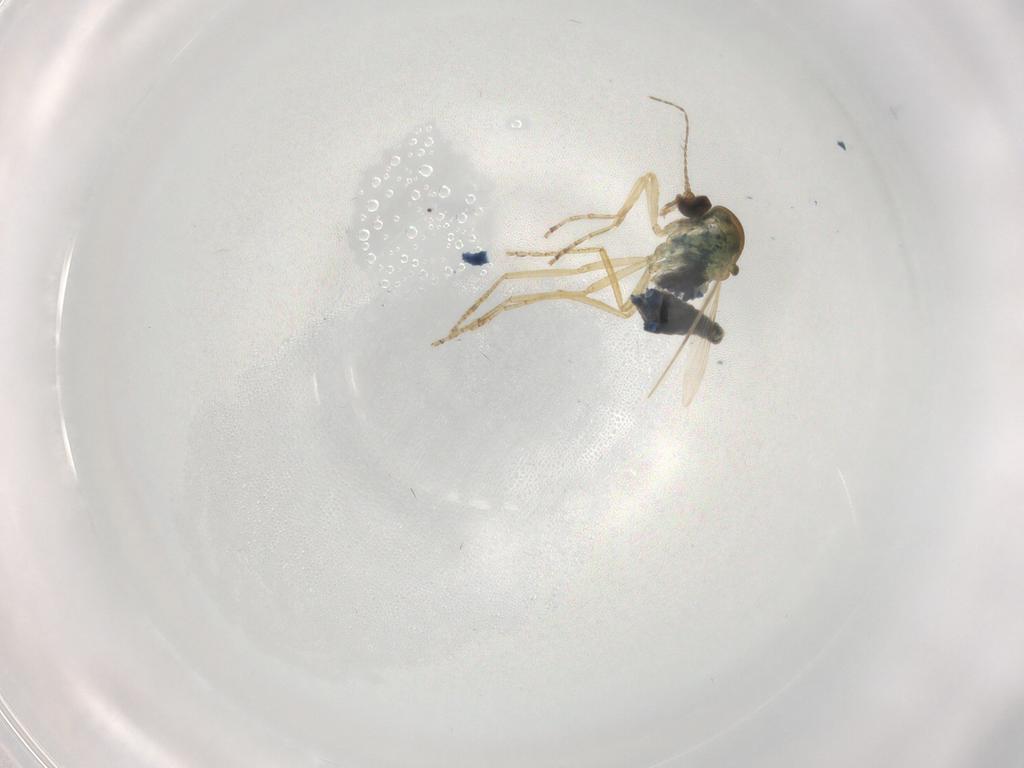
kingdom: Animalia
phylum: Arthropoda
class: Insecta
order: Diptera
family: Ceratopogonidae
